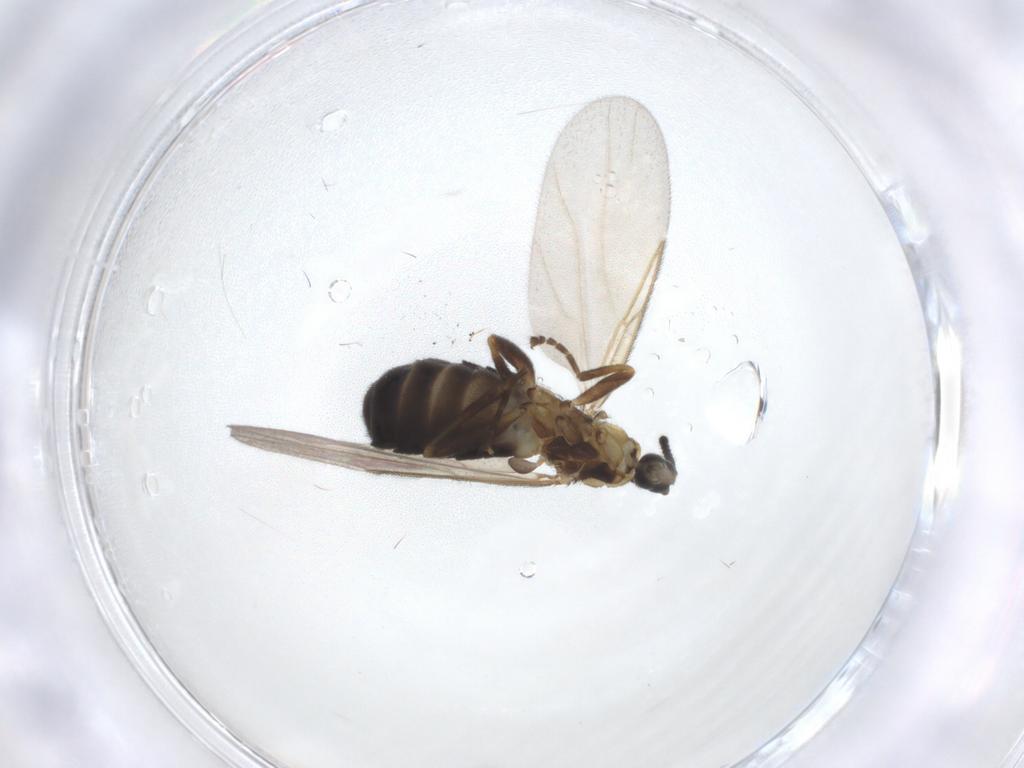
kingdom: Animalia
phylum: Arthropoda
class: Insecta
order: Diptera
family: Scatopsidae
